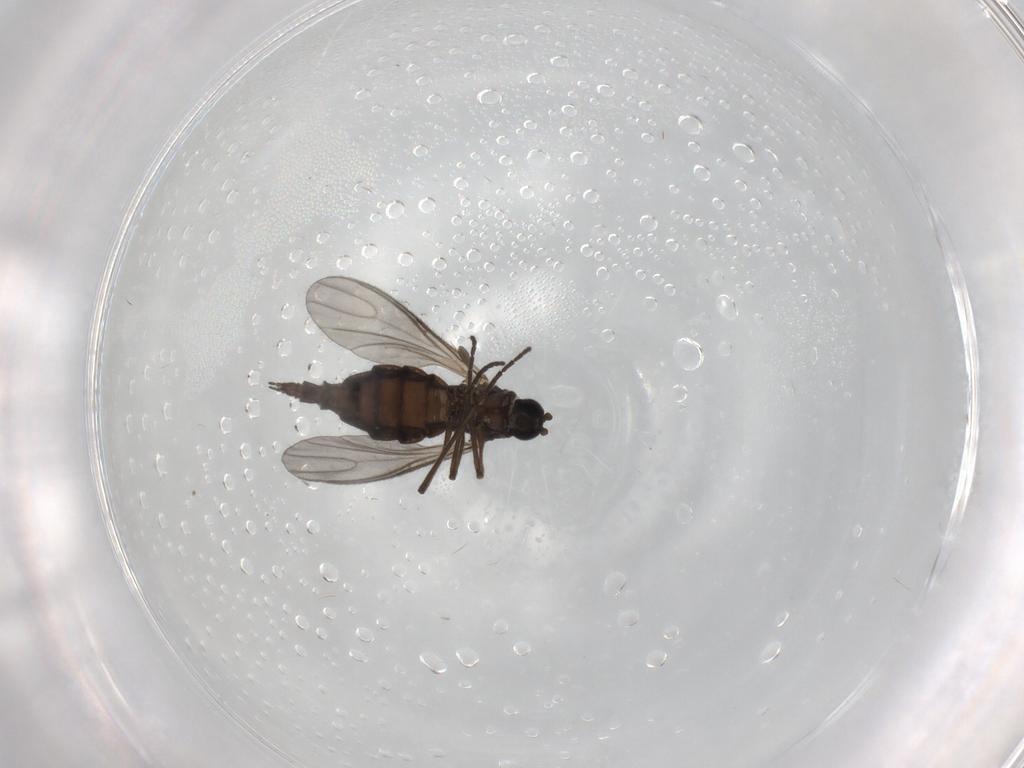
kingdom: Animalia
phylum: Arthropoda
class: Insecta
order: Diptera
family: Sciaridae
